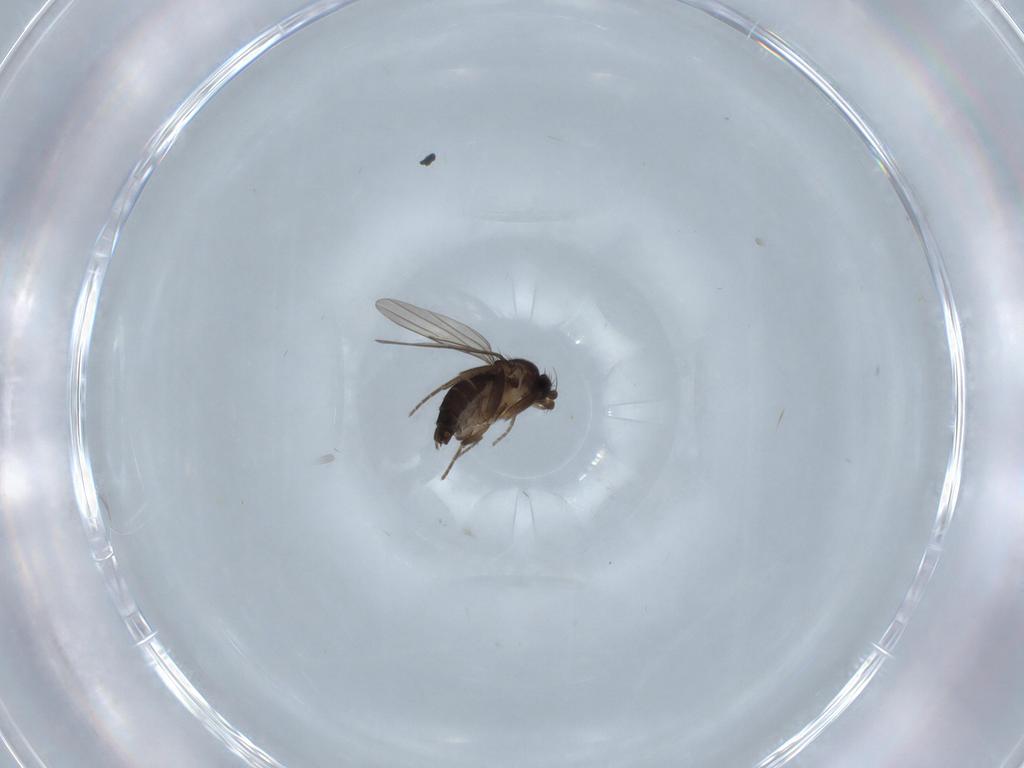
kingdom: Animalia
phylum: Arthropoda
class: Insecta
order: Diptera
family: Phoridae
